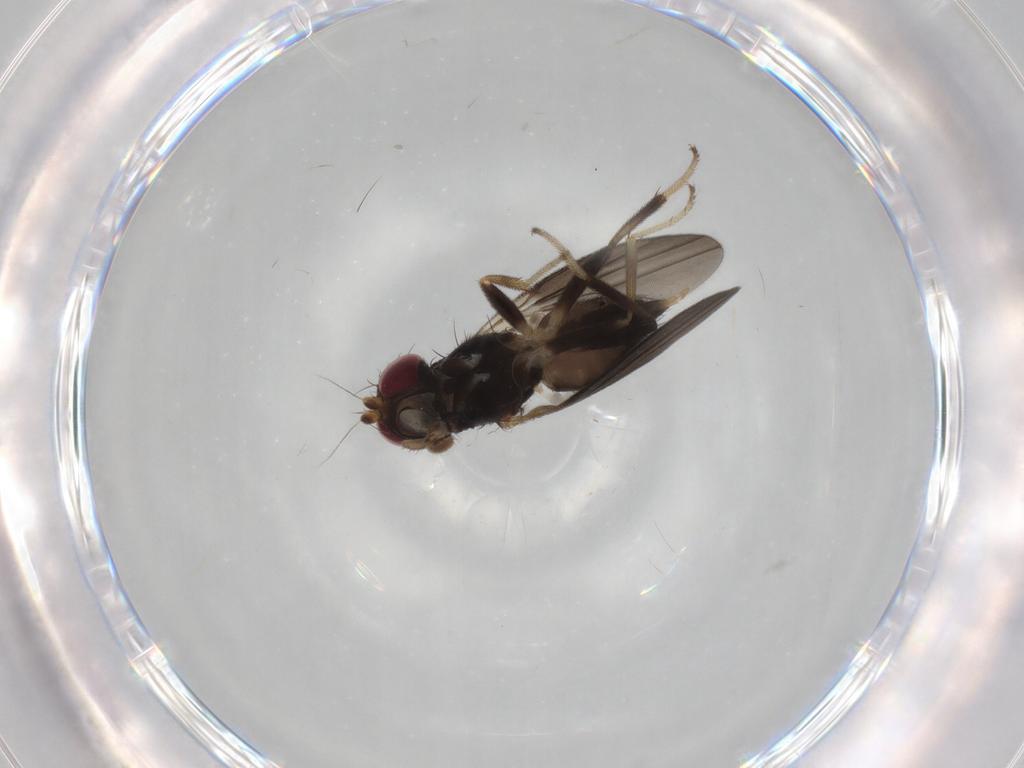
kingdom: Animalia
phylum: Arthropoda
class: Insecta
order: Diptera
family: Clusiidae
